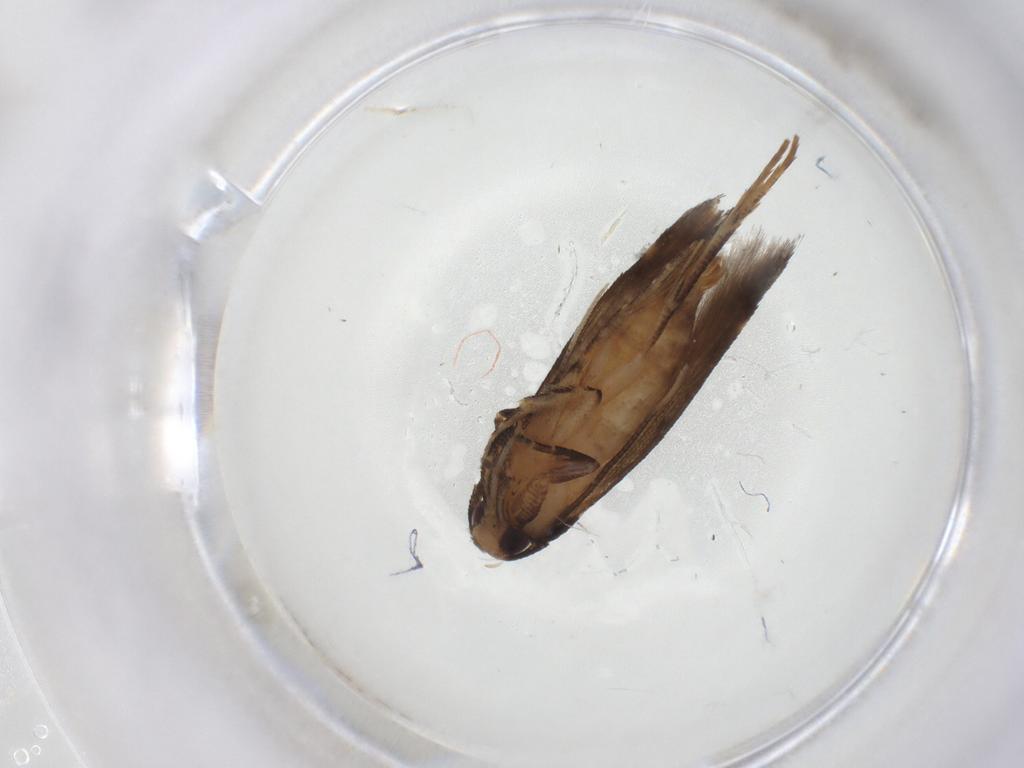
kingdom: Animalia
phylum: Arthropoda
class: Insecta
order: Lepidoptera
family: Cosmopterigidae
